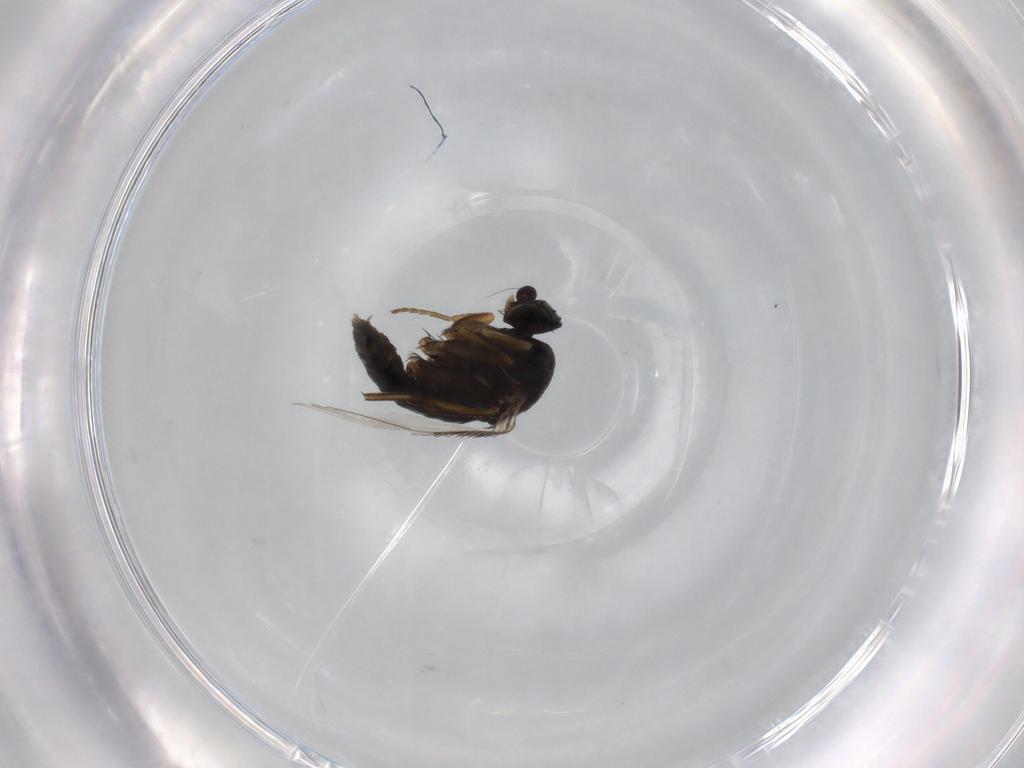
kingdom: Animalia
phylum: Arthropoda
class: Insecta
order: Diptera
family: Phoridae
